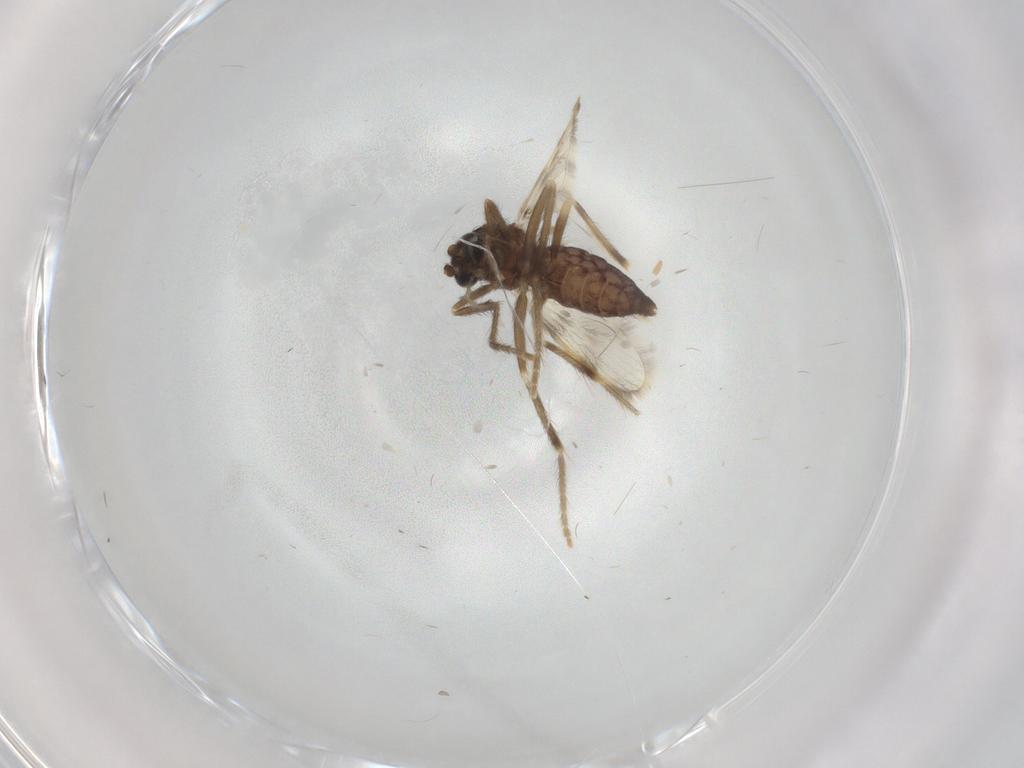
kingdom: Animalia
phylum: Arthropoda
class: Insecta
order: Diptera
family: Corethrellidae
